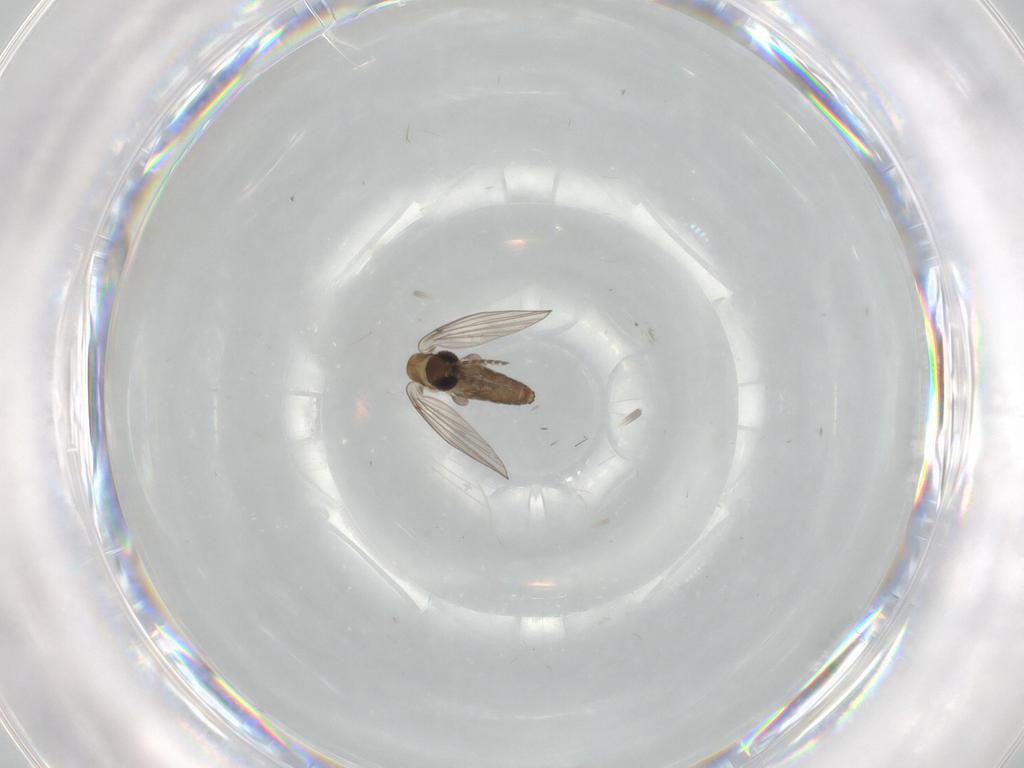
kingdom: Animalia
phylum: Arthropoda
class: Insecta
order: Diptera
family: Psychodidae
